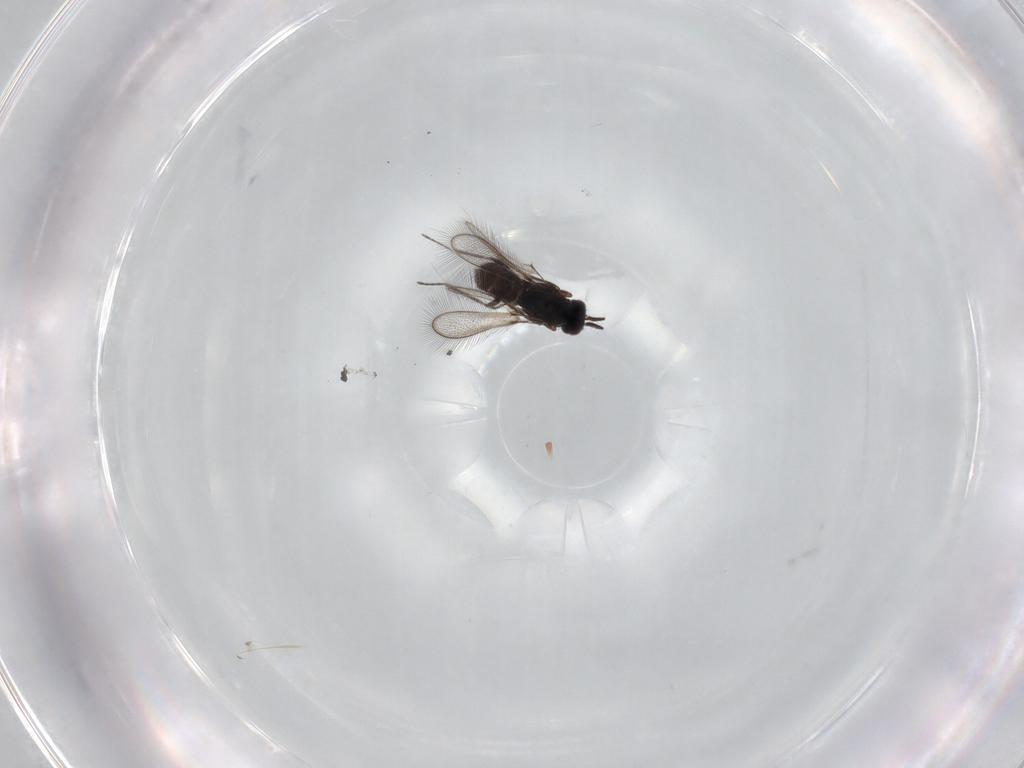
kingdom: Animalia
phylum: Arthropoda
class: Insecta
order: Hymenoptera
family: Mymaridae
